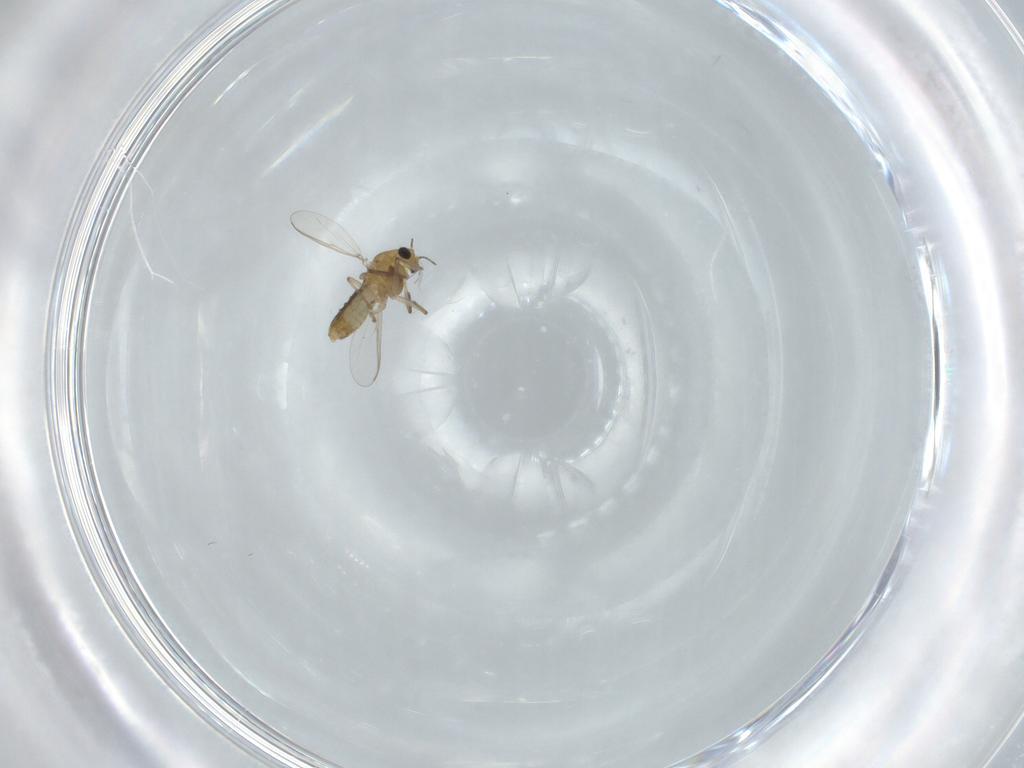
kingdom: Animalia
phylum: Arthropoda
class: Insecta
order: Diptera
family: Chironomidae
